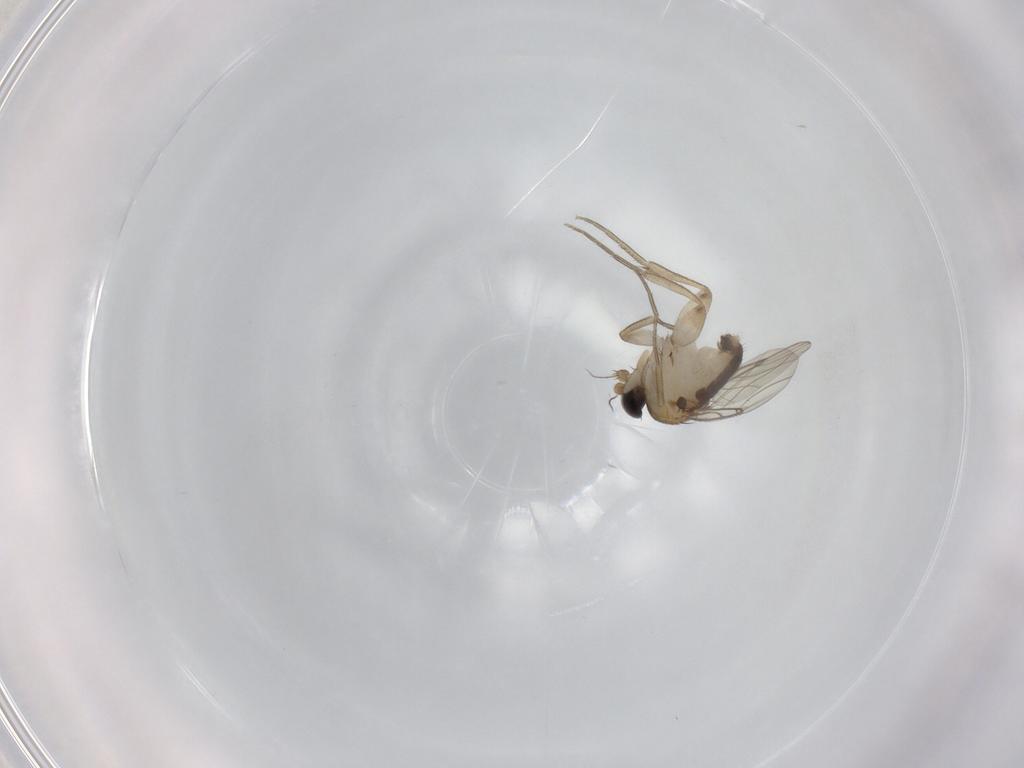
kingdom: Animalia
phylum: Arthropoda
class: Insecta
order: Diptera
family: Phoridae
